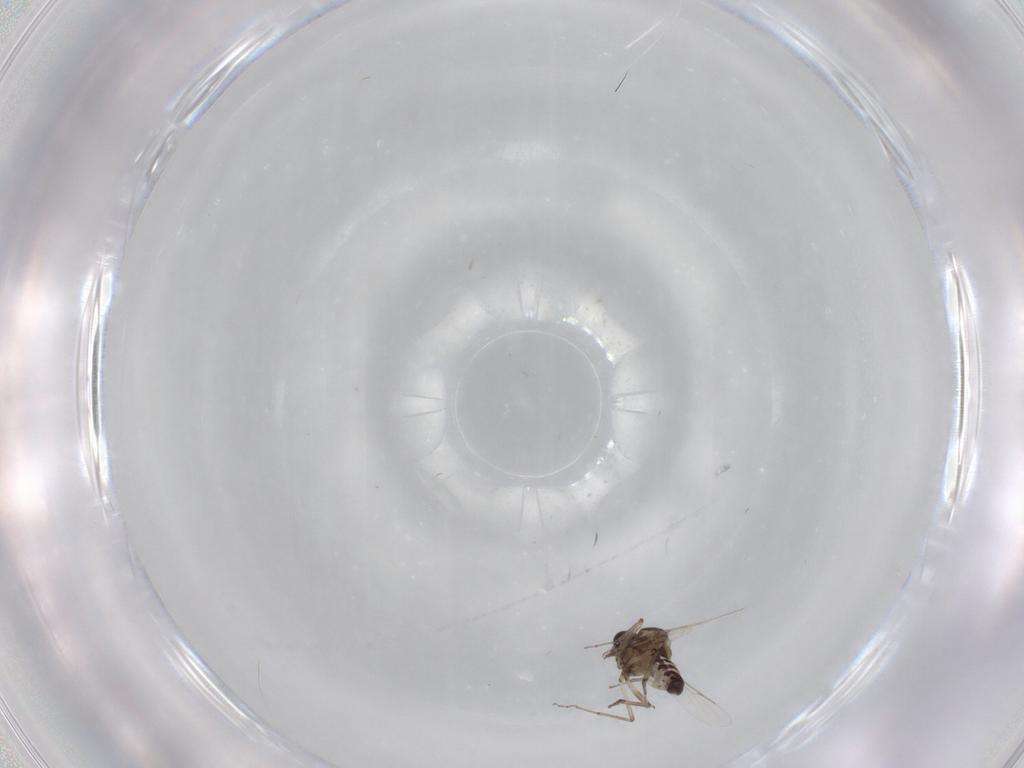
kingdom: Animalia
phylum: Arthropoda
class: Insecta
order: Diptera
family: Ceratopogonidae
